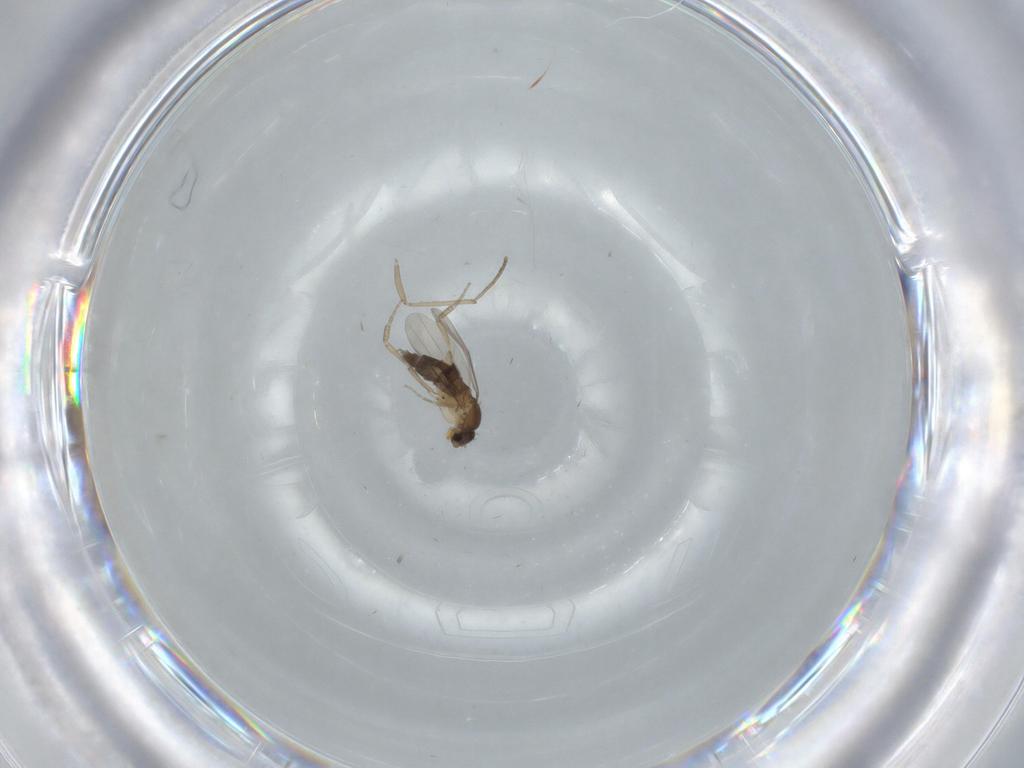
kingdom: Animalia
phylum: Arthropoda
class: Insecta
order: Diptera
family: Phoridae
